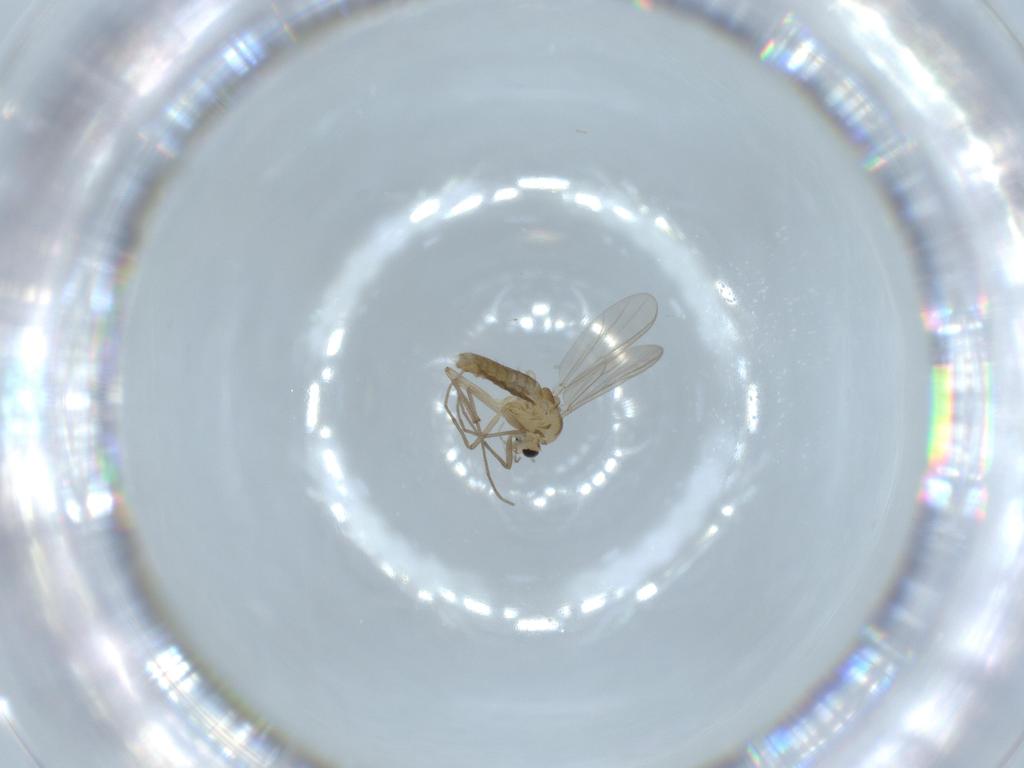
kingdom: Animalia
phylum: Arthropoda
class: Insecta
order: Diptera
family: Chironomidae
